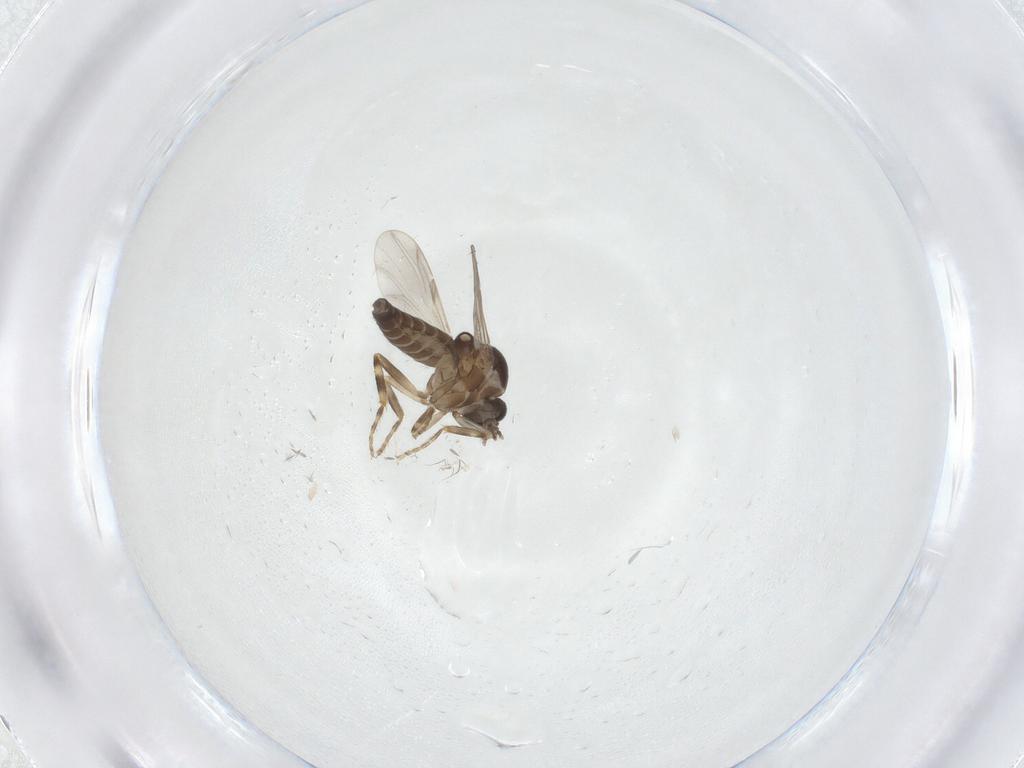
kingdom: Animalia
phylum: Arthropoda
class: Insecta
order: Diptera
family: Ceratopogonidae
